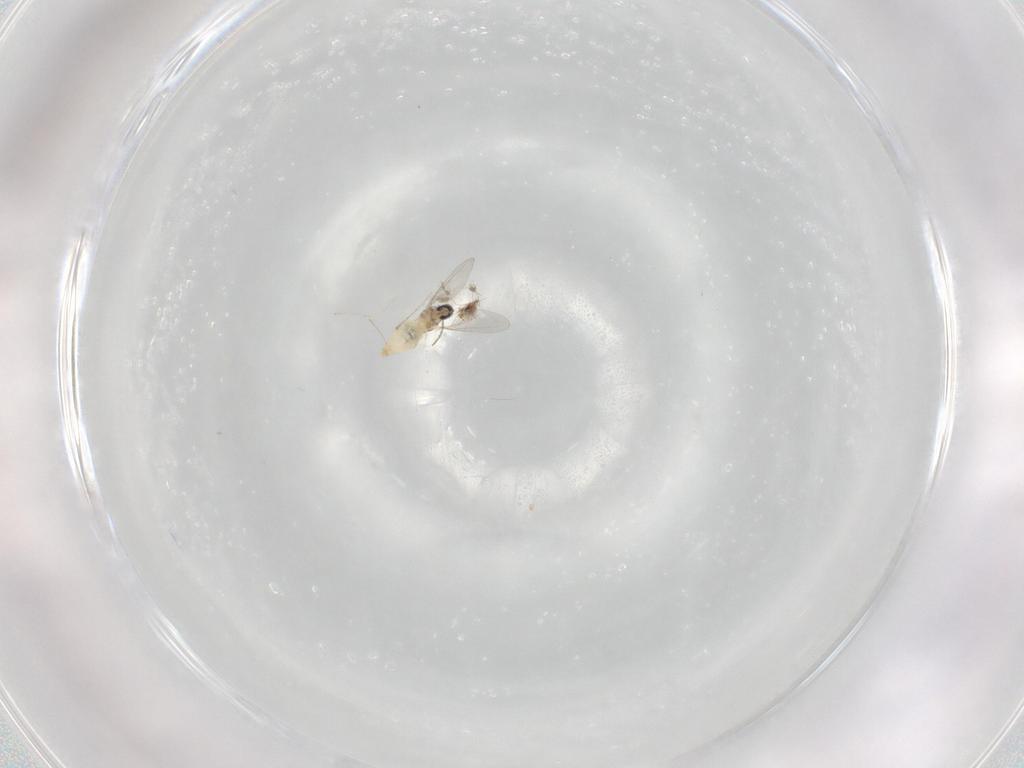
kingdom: Animalia
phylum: Arthropoda
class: Insecta
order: Diptera
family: Cecidomyiidae
